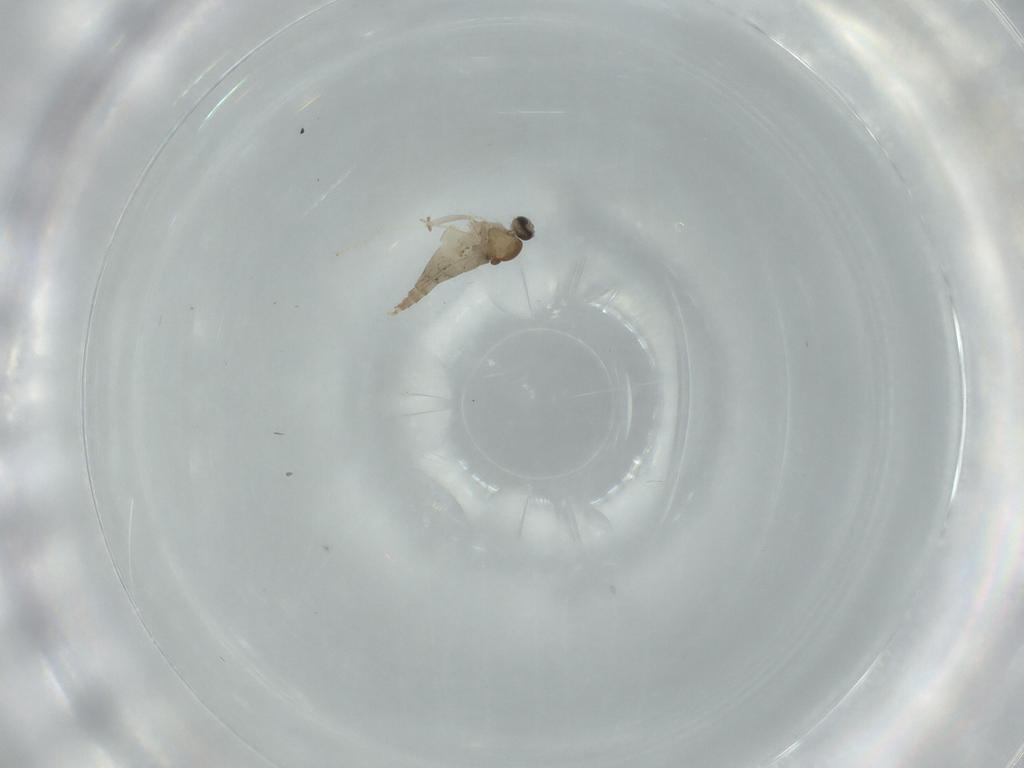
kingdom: Animalia
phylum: Arthropoda
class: Insecta
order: Diptera
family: Cecidomyiidae
